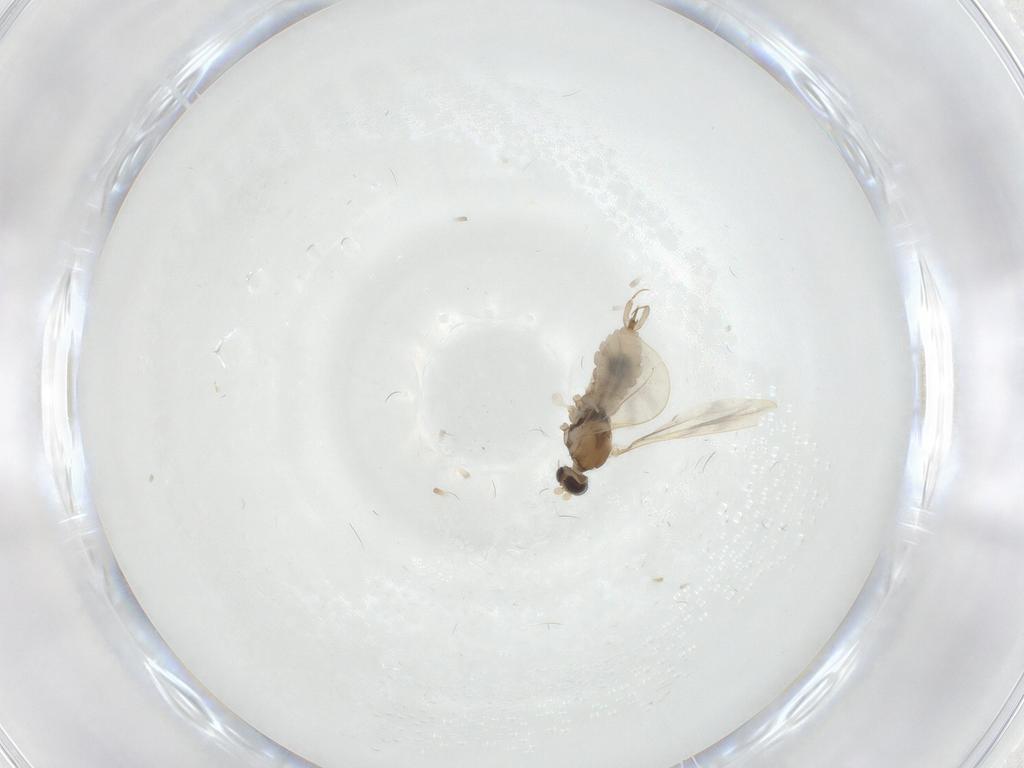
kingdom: Animalia
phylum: Arthropoda
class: Insecta
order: Diptera
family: Cecidomyiidae
